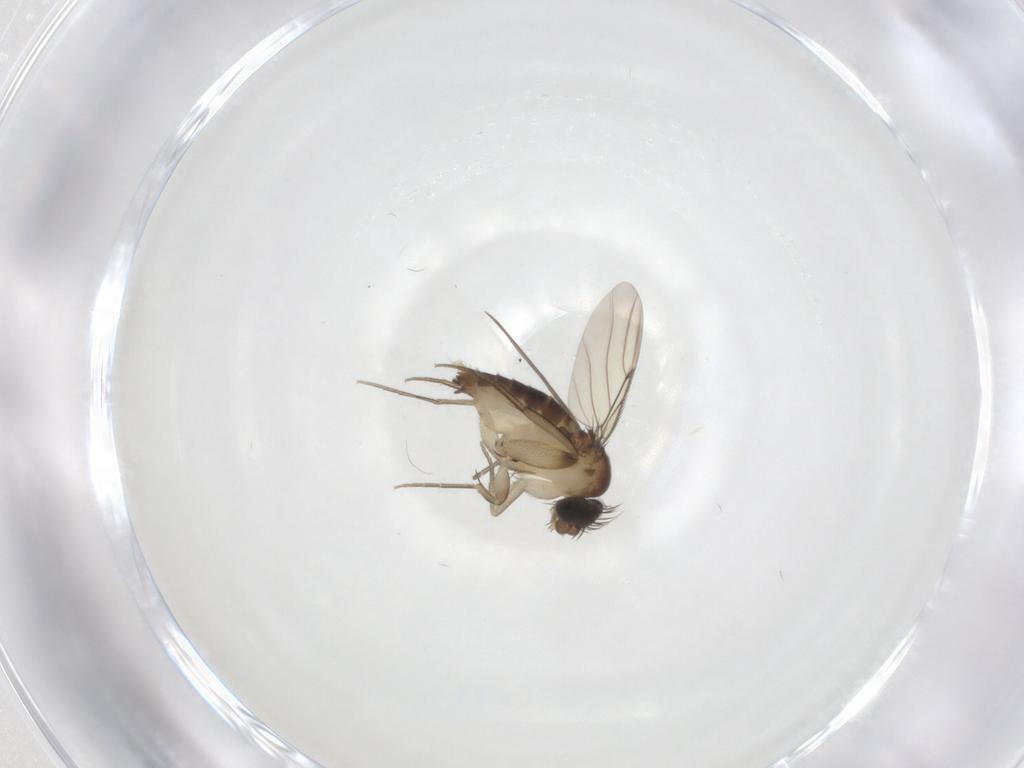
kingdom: Animalia
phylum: Arthropoda
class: Insecta
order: Diptera
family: Phoridae
